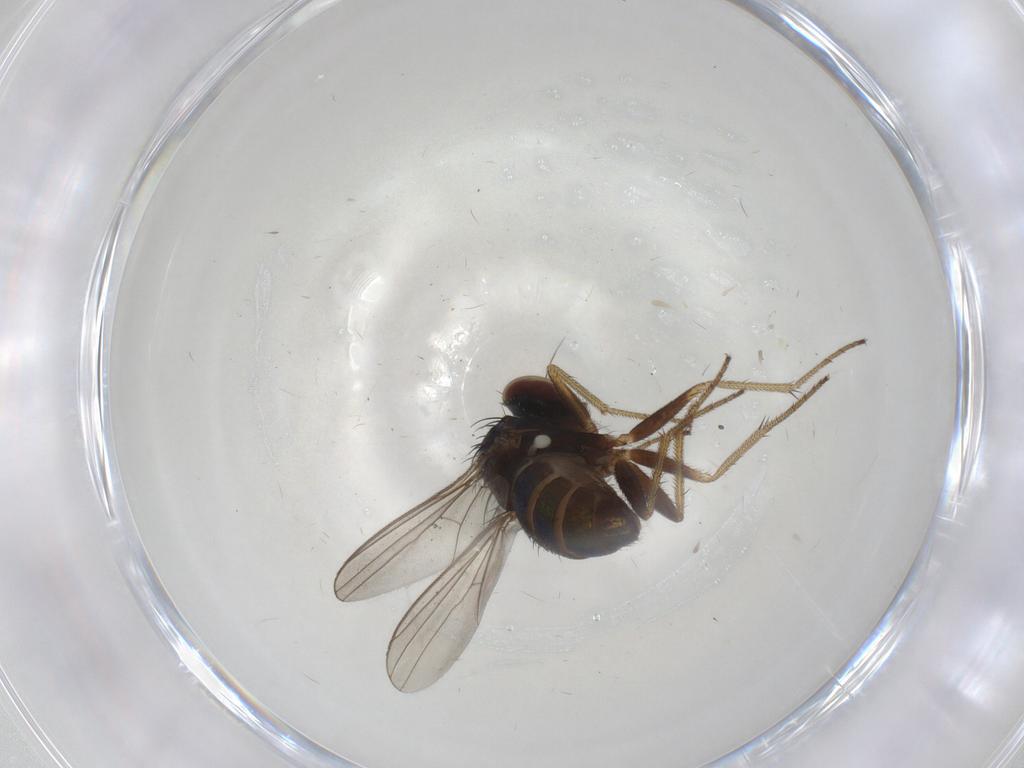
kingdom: Animalia
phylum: Arthropoda
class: Insecta
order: Diptera
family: Dolichopodidae
